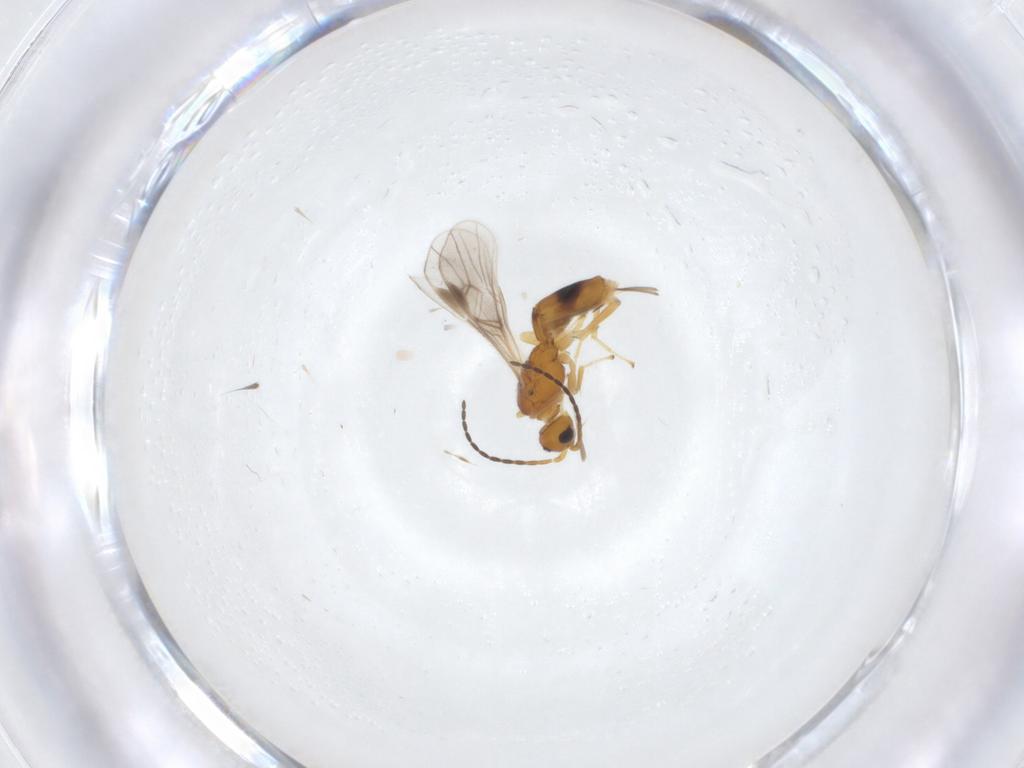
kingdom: Animalia
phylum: Arthropoda
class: Insecta
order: Hymenoptera
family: Braconidae
